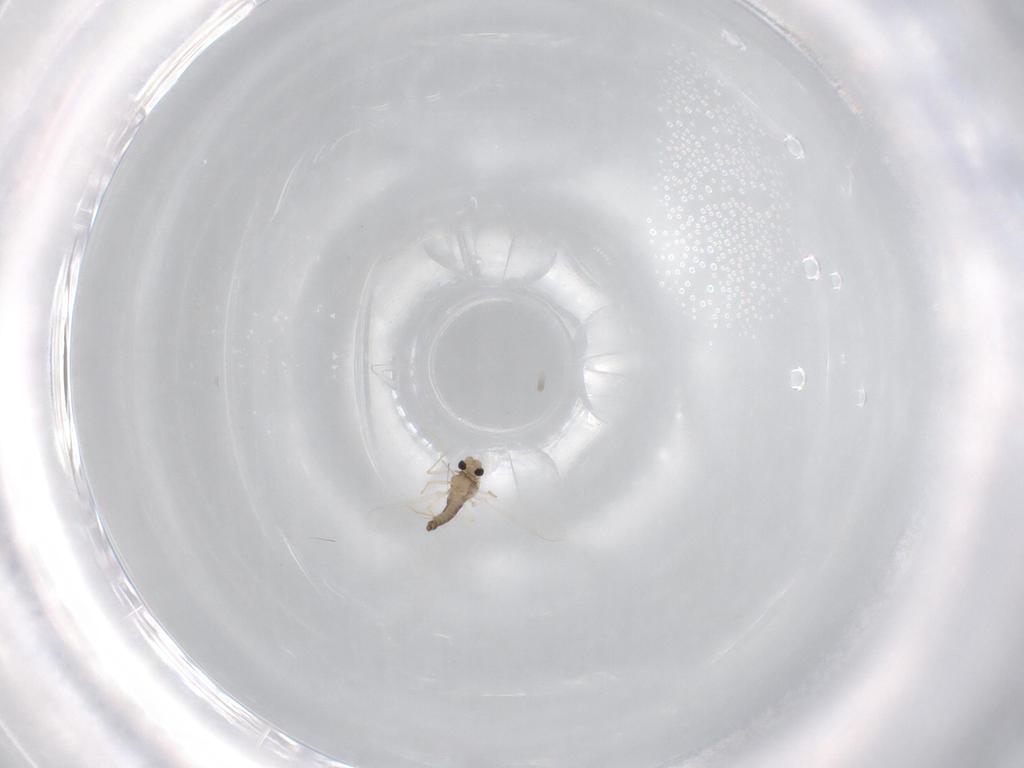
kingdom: Animalia
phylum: Arthropoda
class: Insecta
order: Diptera
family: Chironomidae
